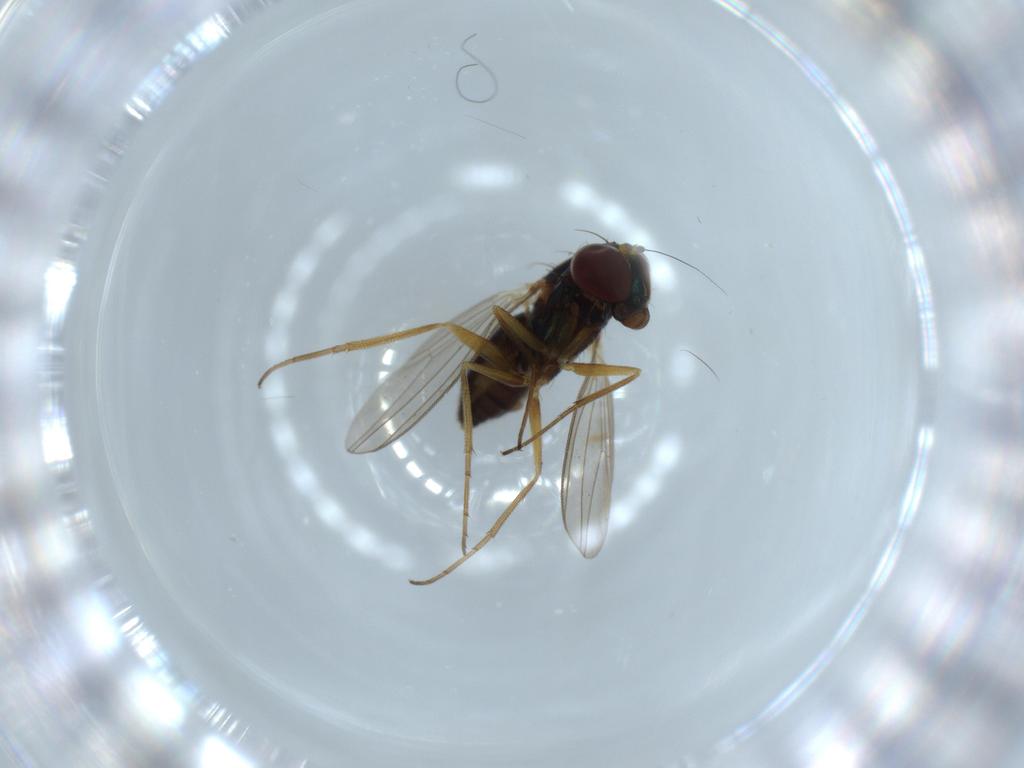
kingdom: Animalia
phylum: Arthropoda
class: Insecta
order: Diptera
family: Dolichopodidae
